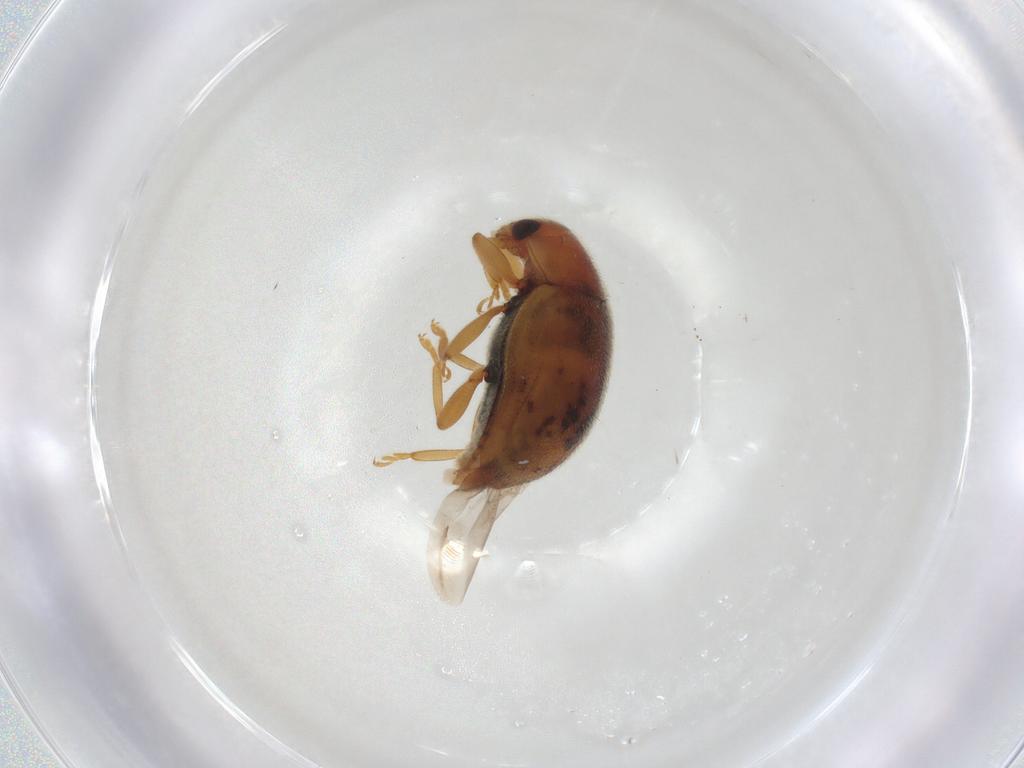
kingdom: Animalia
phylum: Arthropoda
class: Insecta
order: Coleoptera
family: Coccinellidae
